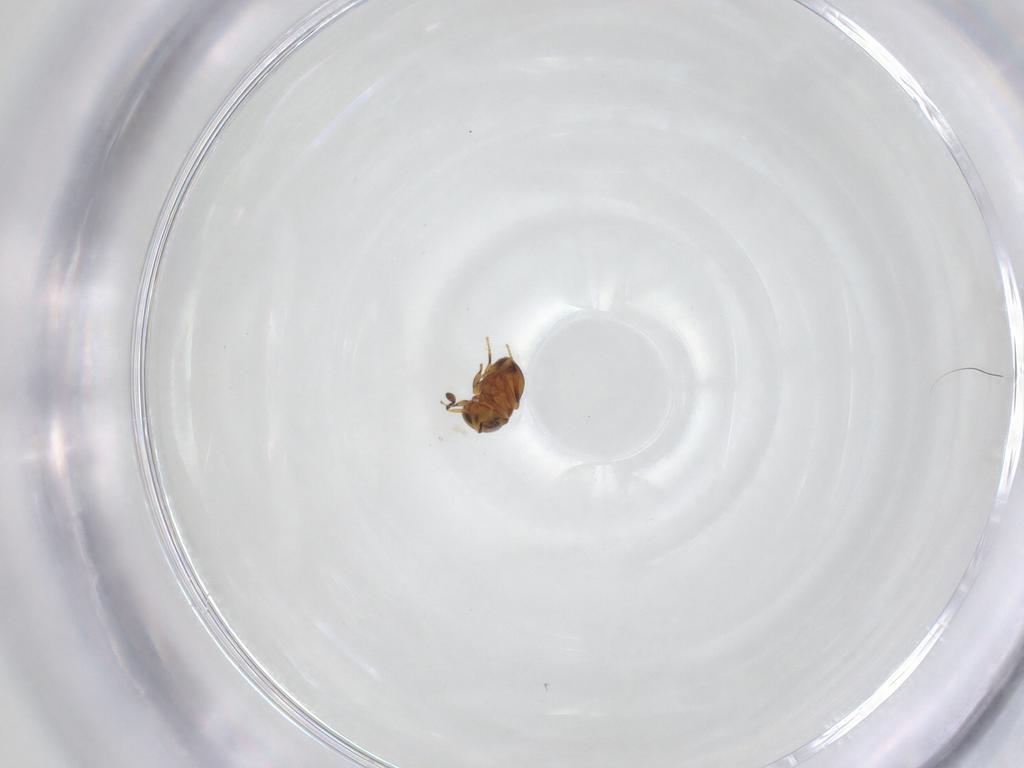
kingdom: Animalia
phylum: Arthropoda
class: Insecta
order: Hymenoptera
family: Scelionidae
